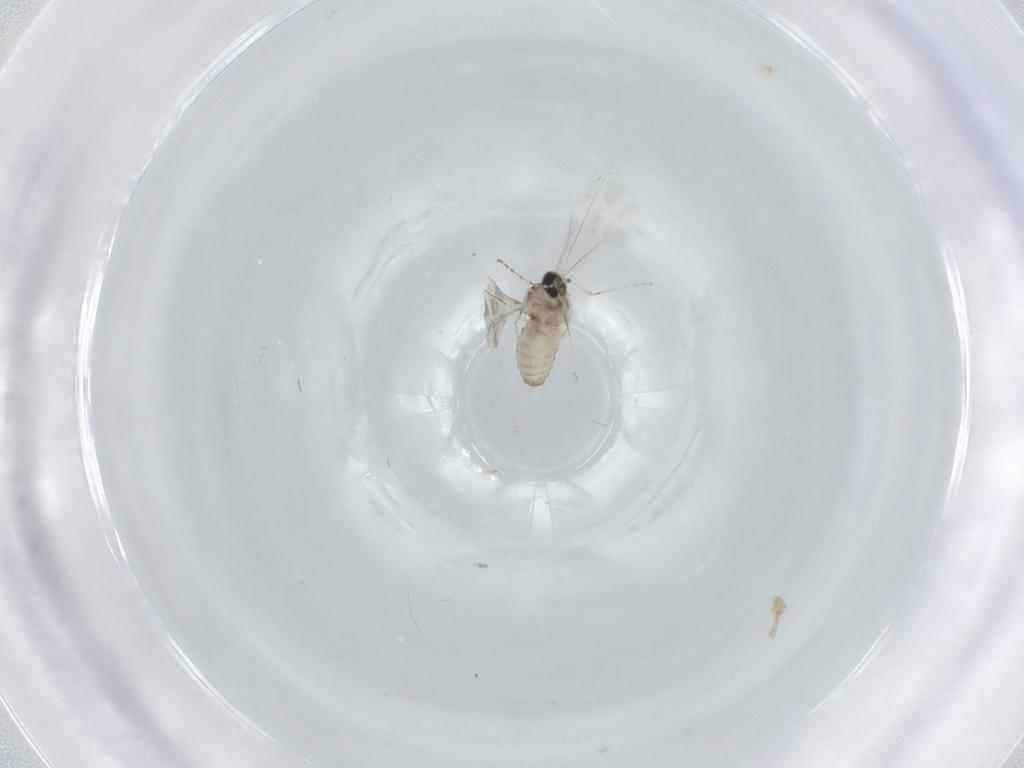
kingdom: Animalia
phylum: Arthropoda
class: Insecta
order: Diptera
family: Cecidomyiidae
